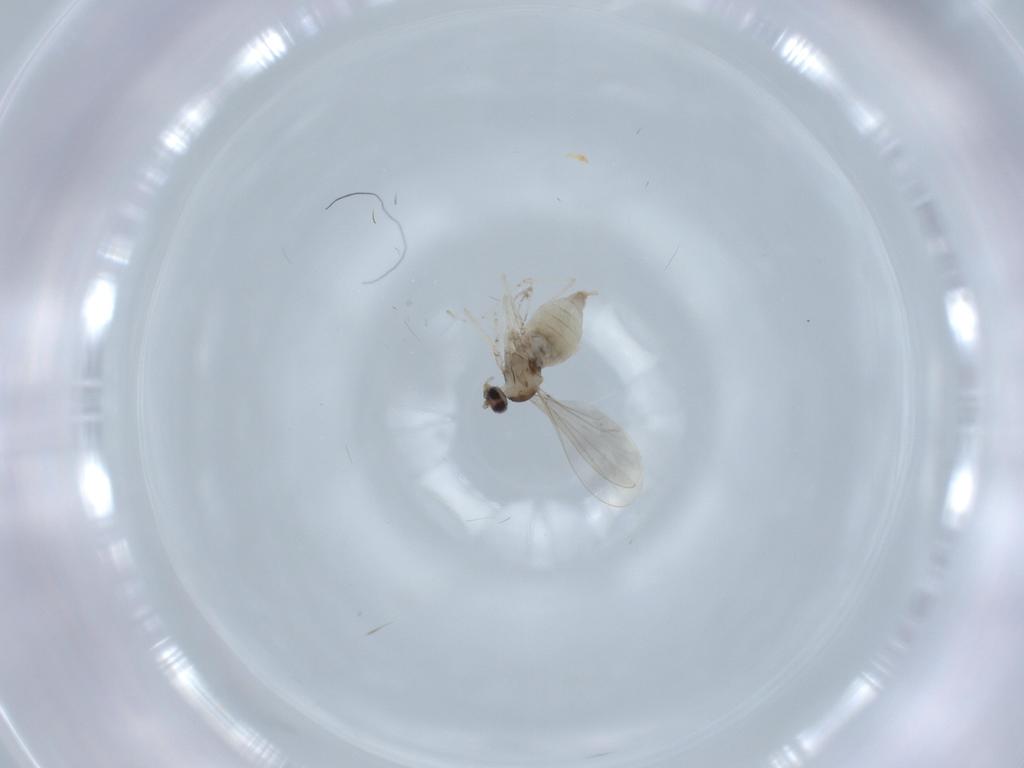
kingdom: Animalia
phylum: Arthropoda
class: Insecta
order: Diptera
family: Cecidomyiidae
